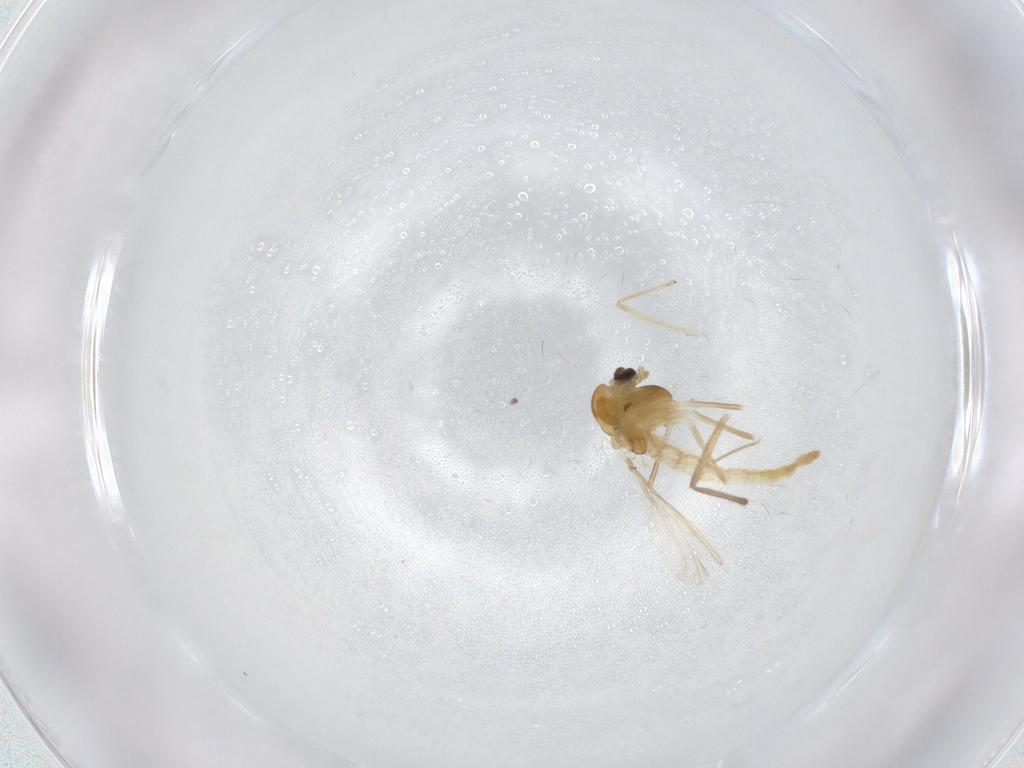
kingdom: Animalia
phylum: Arthropoda
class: Insecta
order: Diptera
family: Chironomidae
